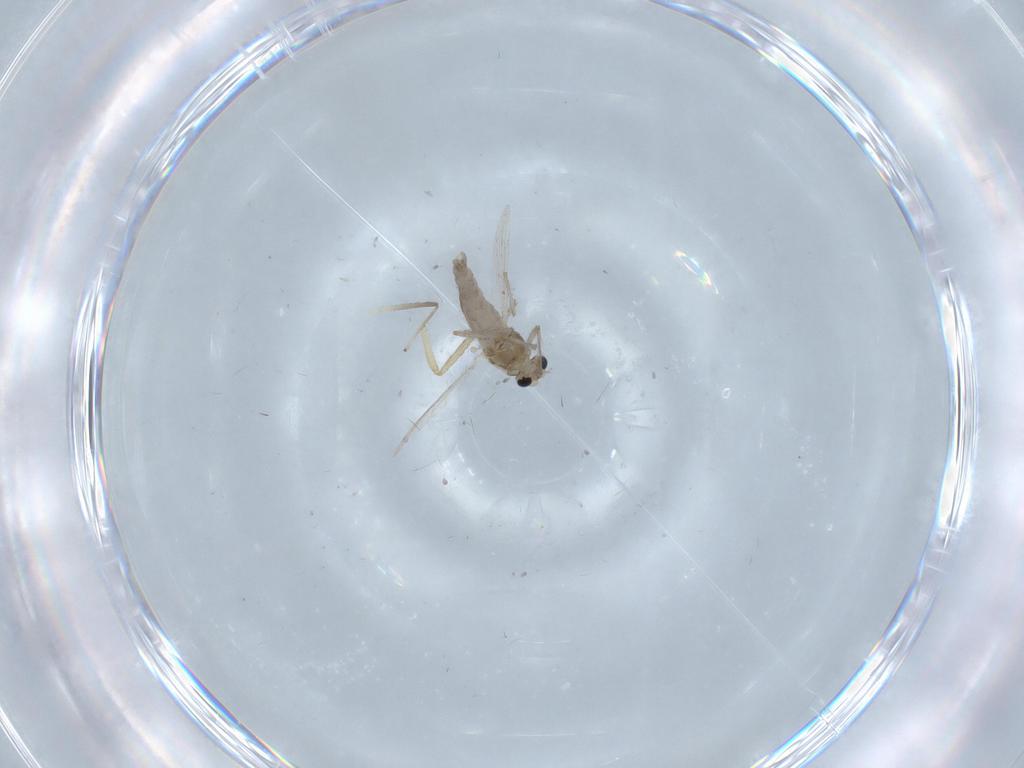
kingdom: Animalia
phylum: Arthropoda
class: Insecta
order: Diptera
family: Chironomidae
